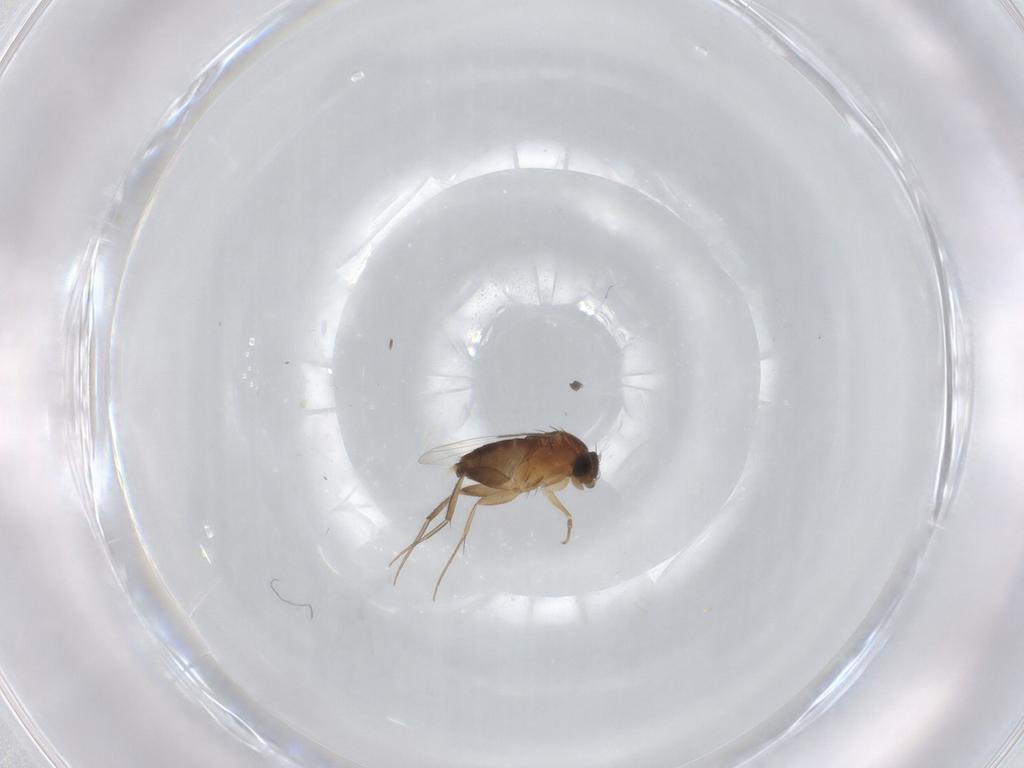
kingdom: Animalia
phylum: Arthropoda
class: Insecta
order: Diptera
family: Phoridae
